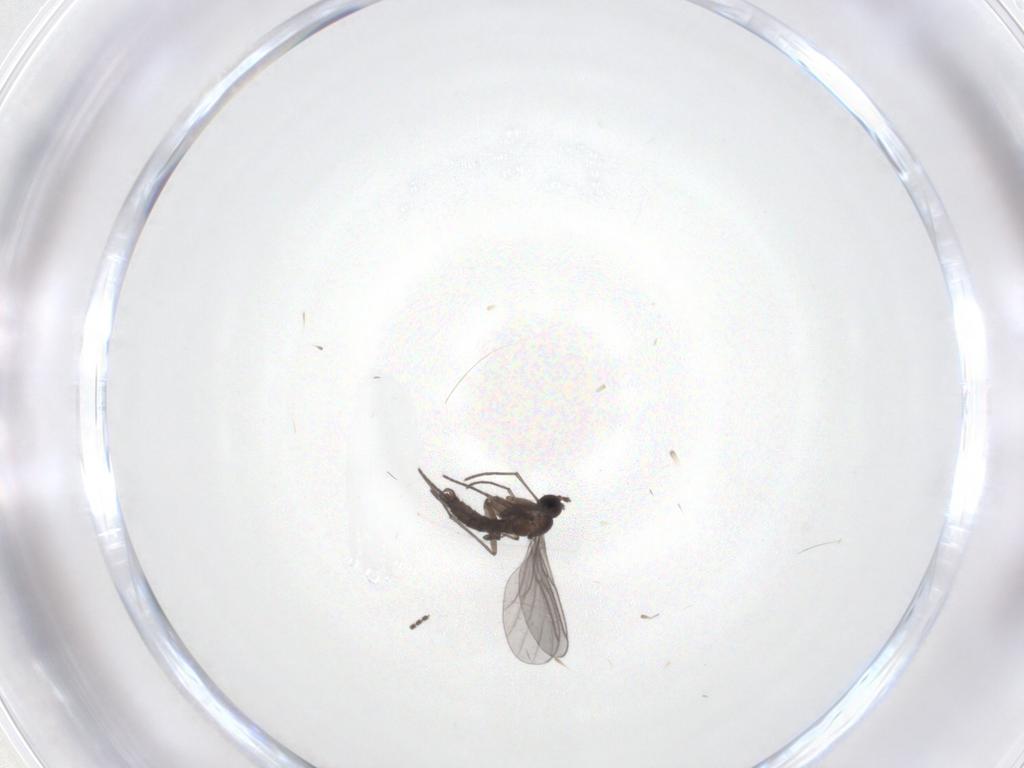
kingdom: Animalia
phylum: Arthropoda
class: Insecta
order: Diptera
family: Cecidomyiidae
